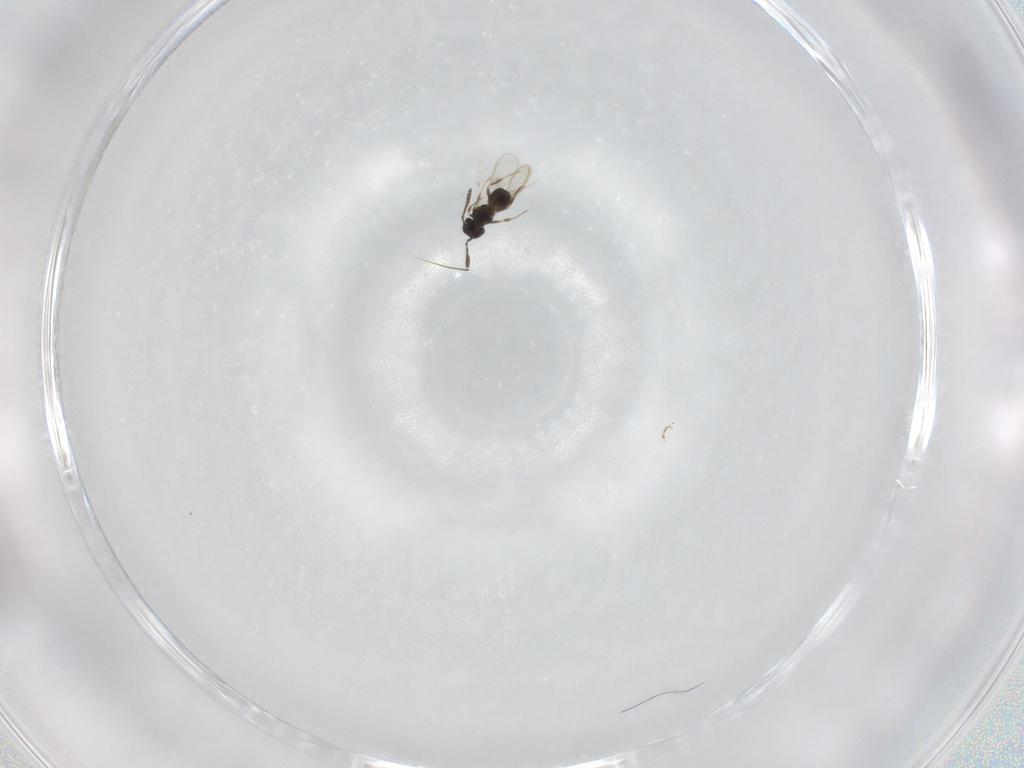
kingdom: Animalia
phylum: Arthropoda
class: Insecta
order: Hymenoptera
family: Scelionidae
